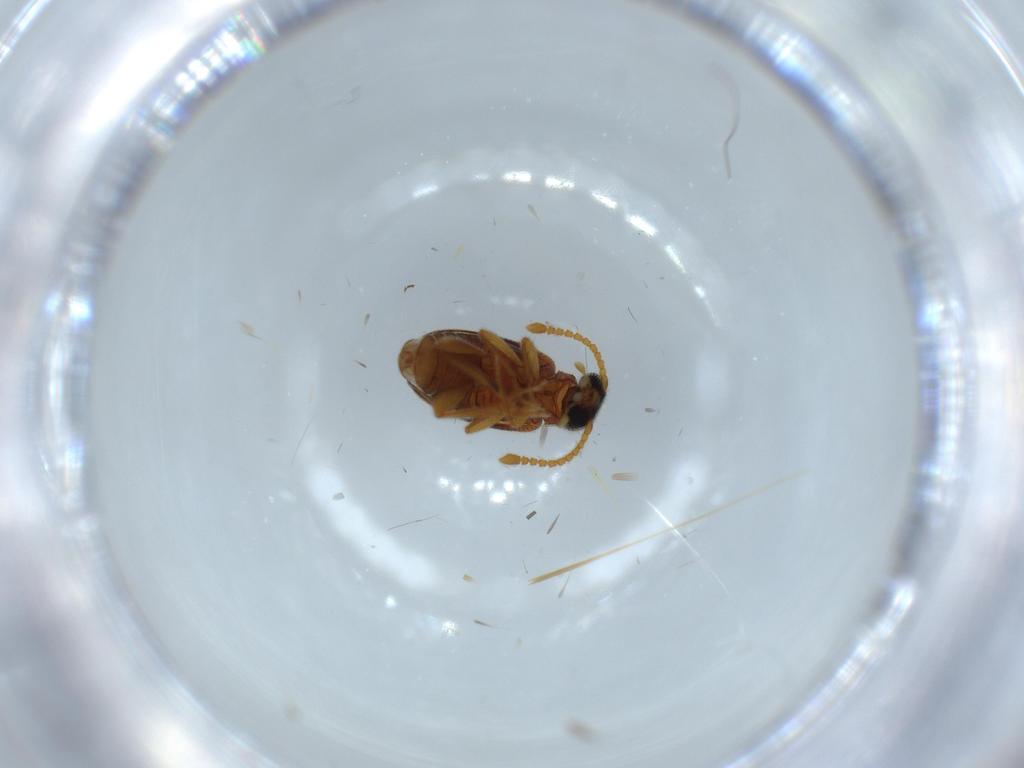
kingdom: Animalia
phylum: Arthropoda
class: Insecta
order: Coleoptera
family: Aderidae
